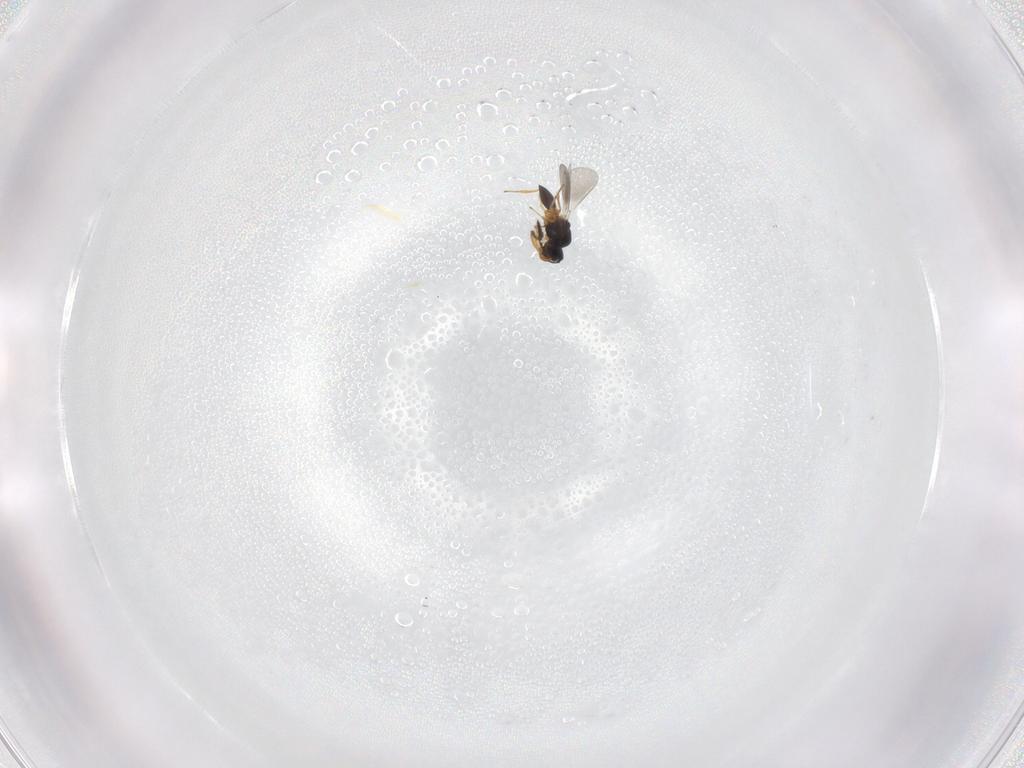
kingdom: Animalia
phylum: Arthropoda
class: Insecta
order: Hymenoptera
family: Platygastridae
